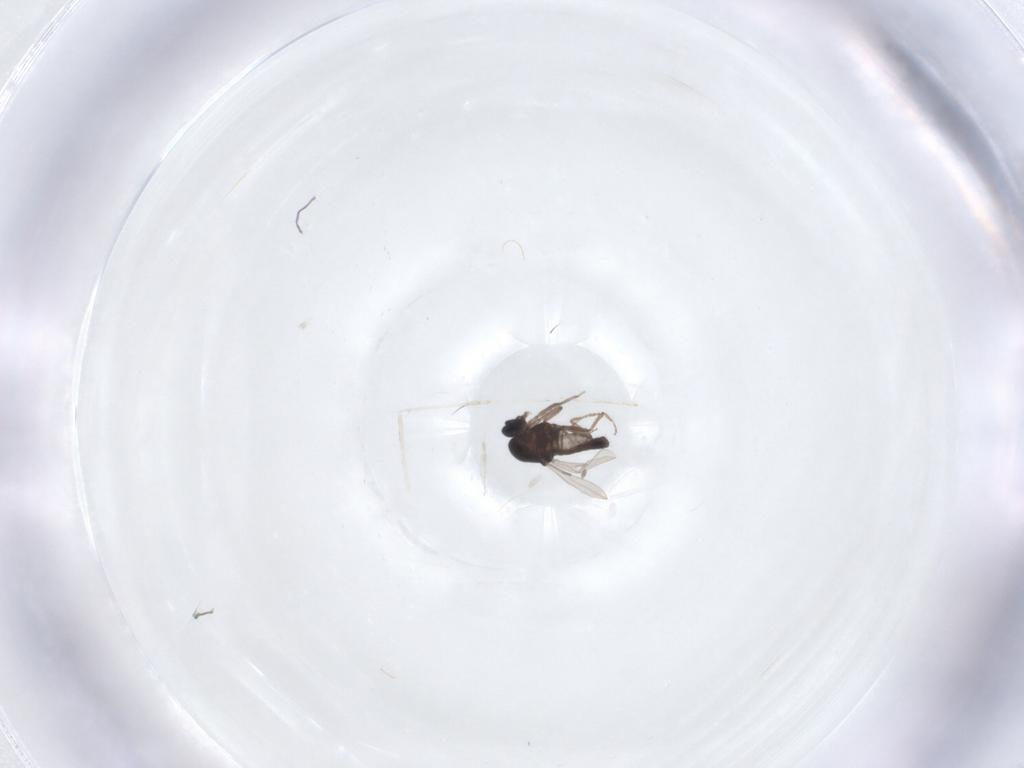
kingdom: Animalia
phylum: Arthropoda
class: Insecta
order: Diptera
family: Ceratopogonidae
